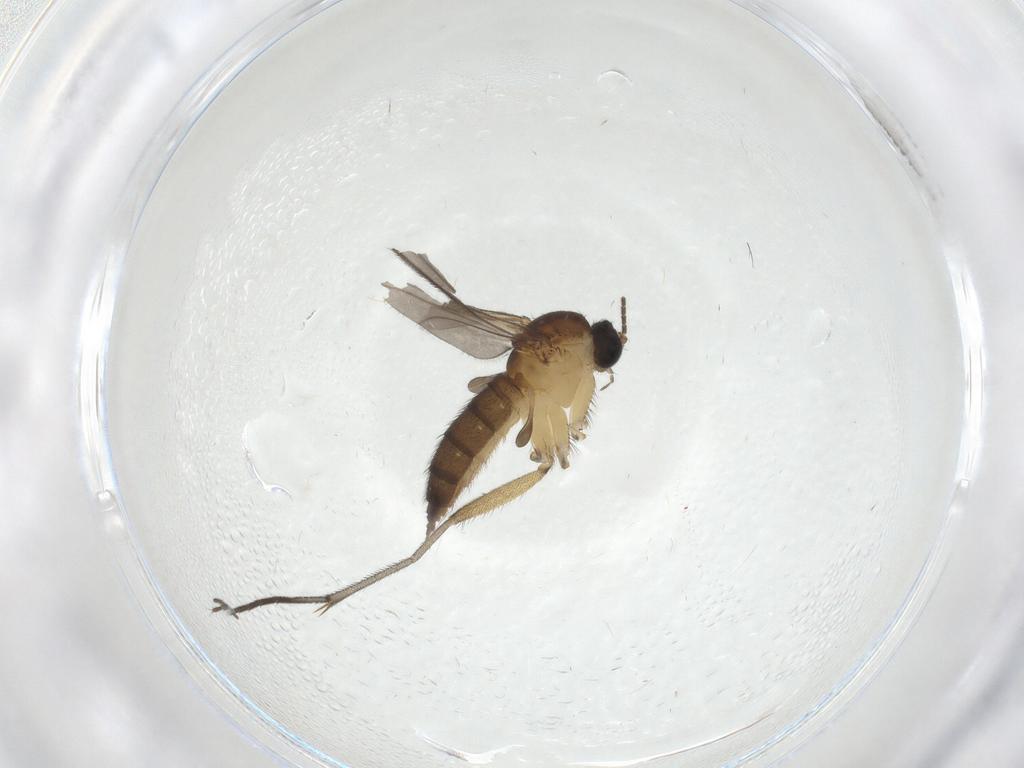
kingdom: Animalia
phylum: Arthropoda
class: Insecta
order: Diptera
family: Sciaridae
